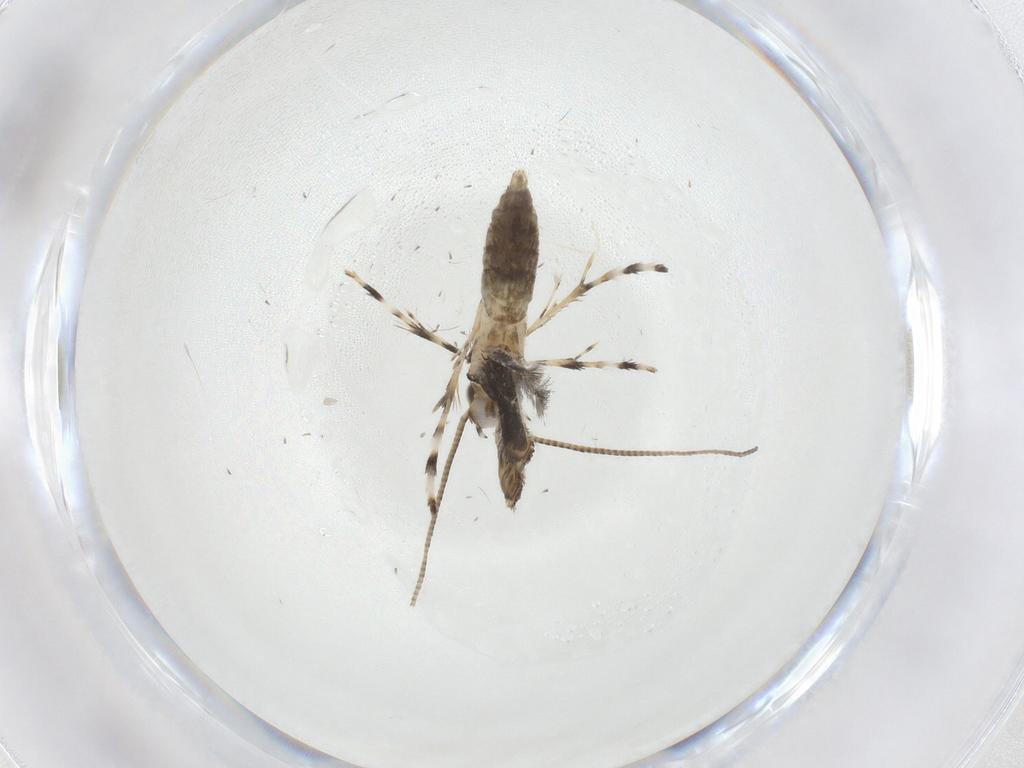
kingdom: Animalia
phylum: Arthropoda
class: Insecta
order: Lepidoptera
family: Gracillariidae
